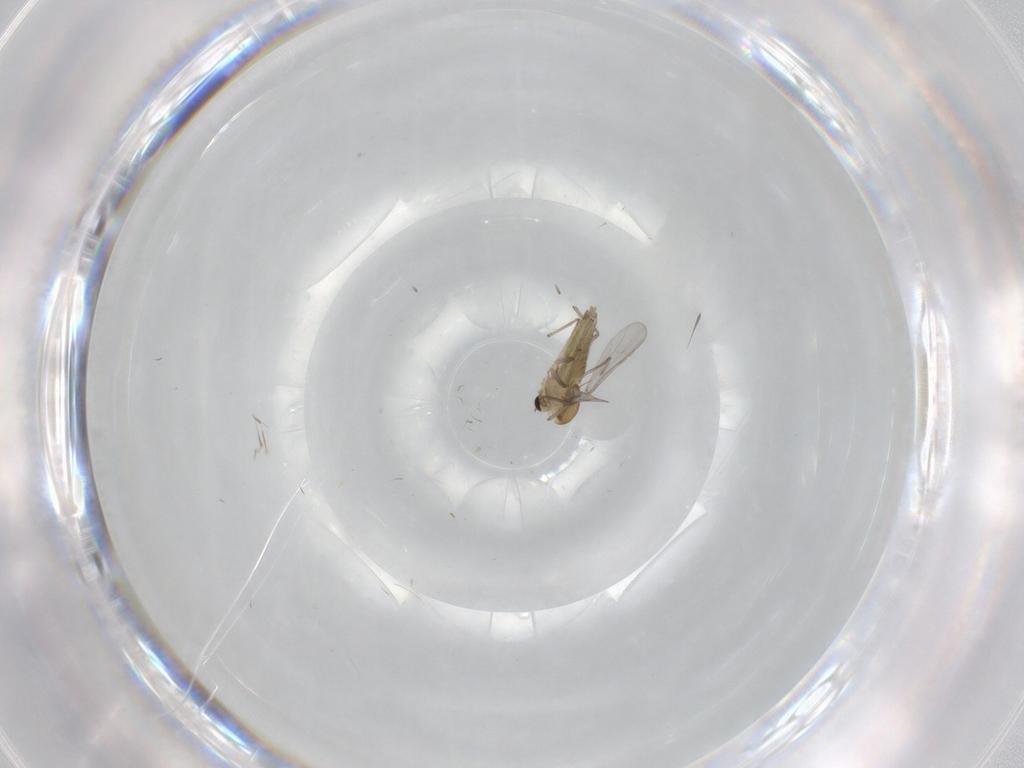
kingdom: Animalia
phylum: Arthropoda
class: Insecta
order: Diptera
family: Chironomidae
